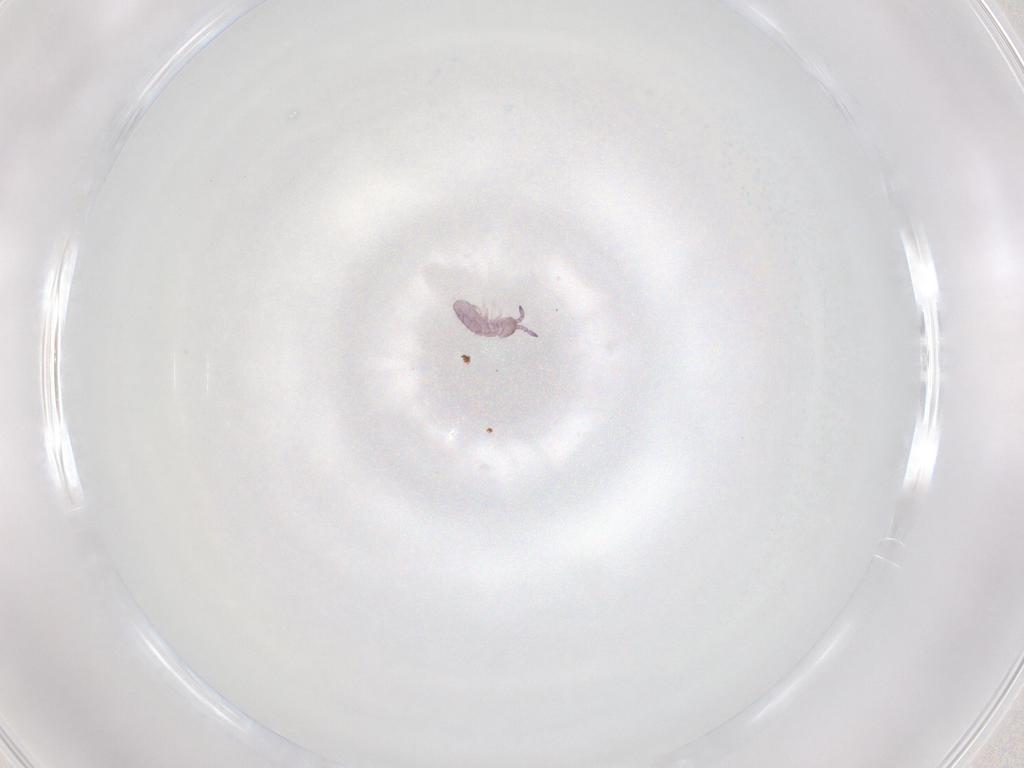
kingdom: Animalia
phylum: Arthropoda
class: Collembola
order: Entomobryomorpha
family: Isotomidae
